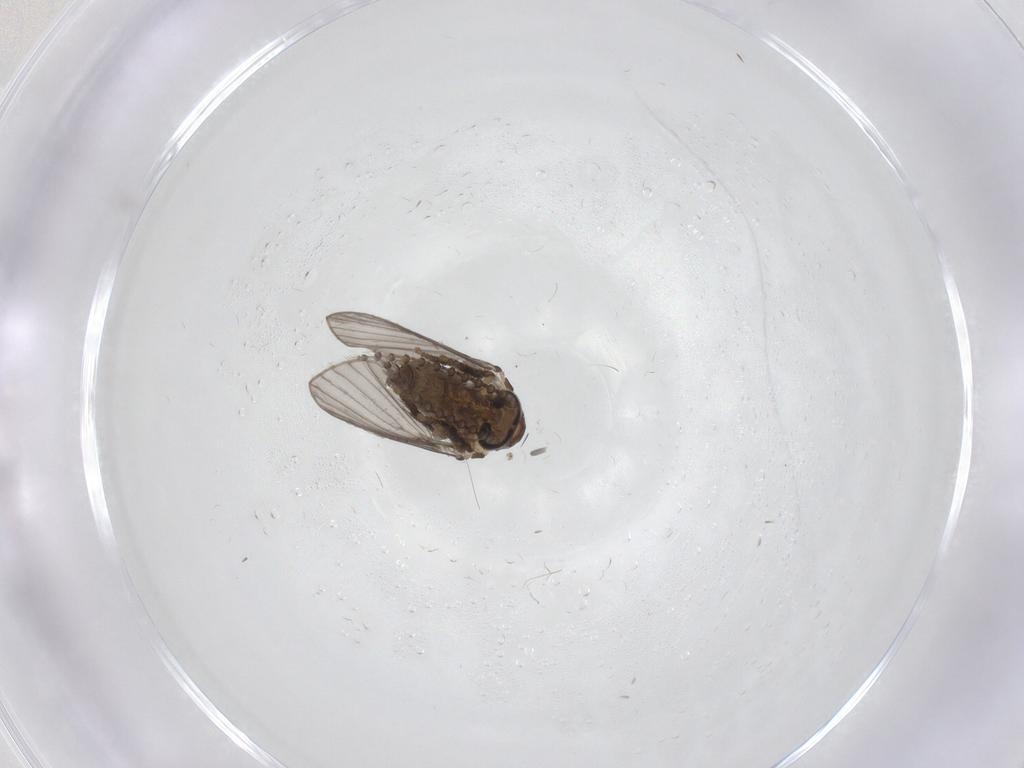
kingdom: Animalia
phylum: Arthropoda
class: Insecta
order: Diptera
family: Psychodidae
